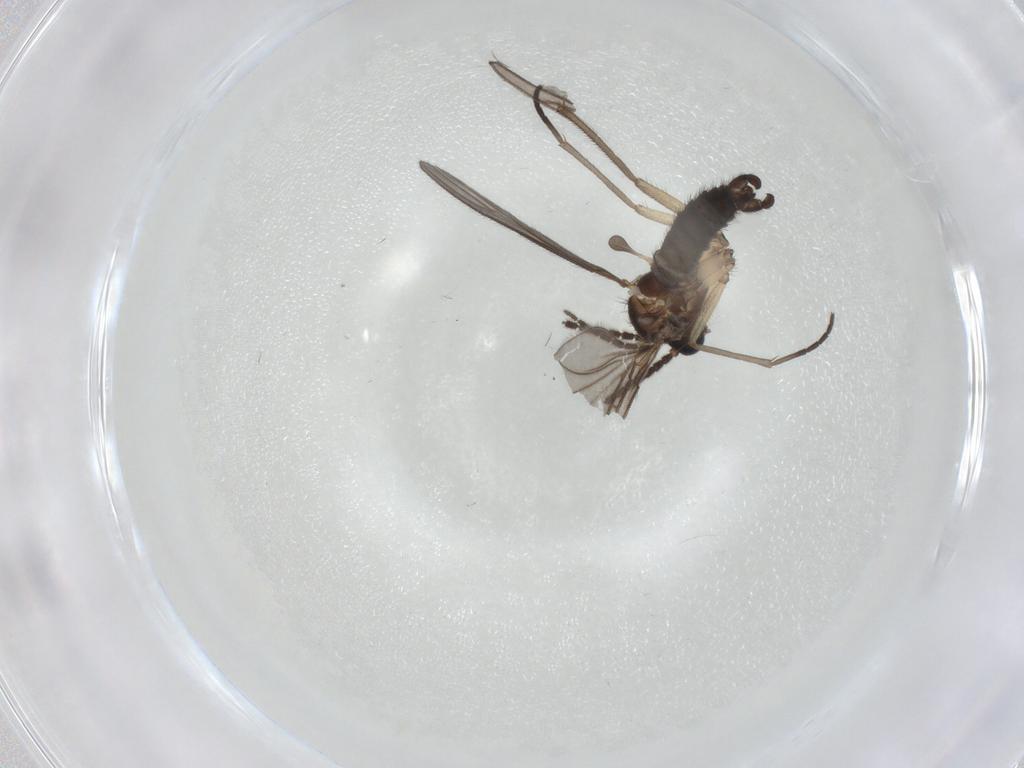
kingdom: Animalia
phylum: Arthropoda
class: Insecta
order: Diptera
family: Sciaridae
